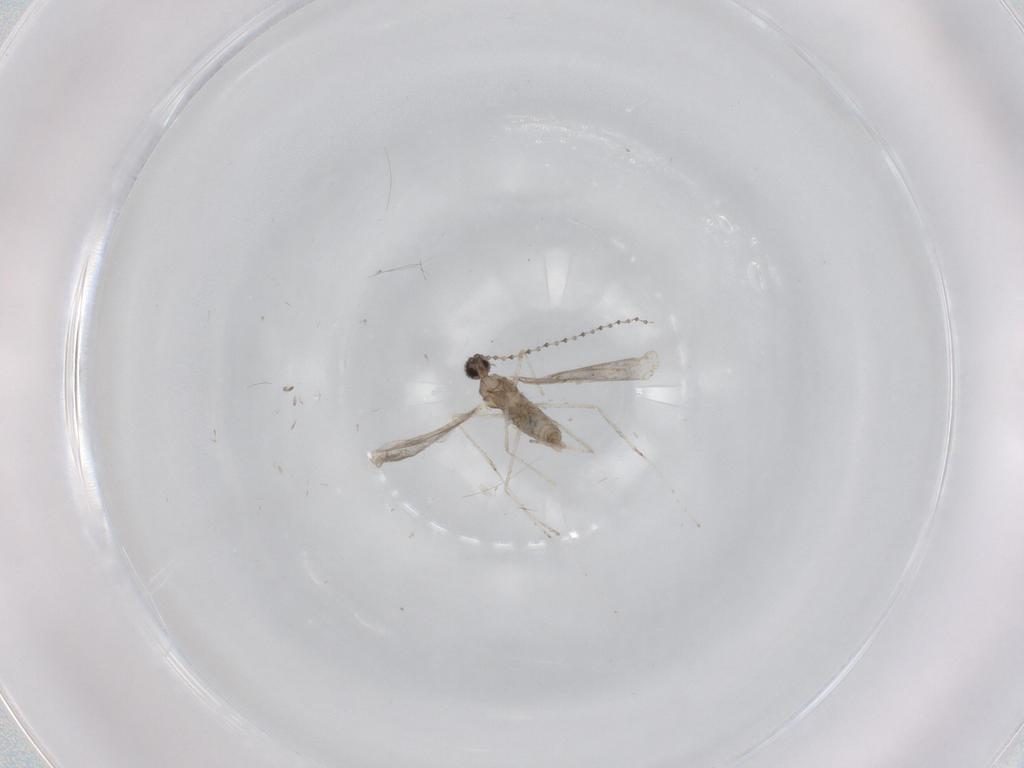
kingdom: Animalia
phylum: Arthropoda
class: Insecta
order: Diptera
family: Cecidomyiidae
